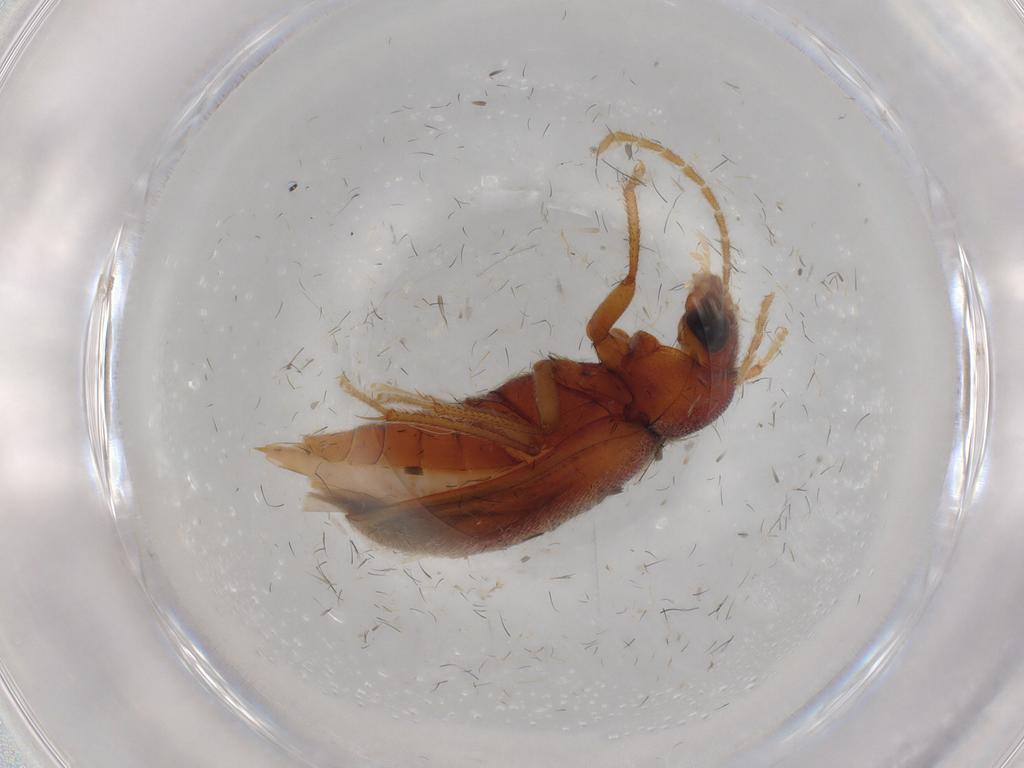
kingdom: Animalia
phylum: Arthropoda
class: Insecta
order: Coleoptera
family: Ptilodactylidae
